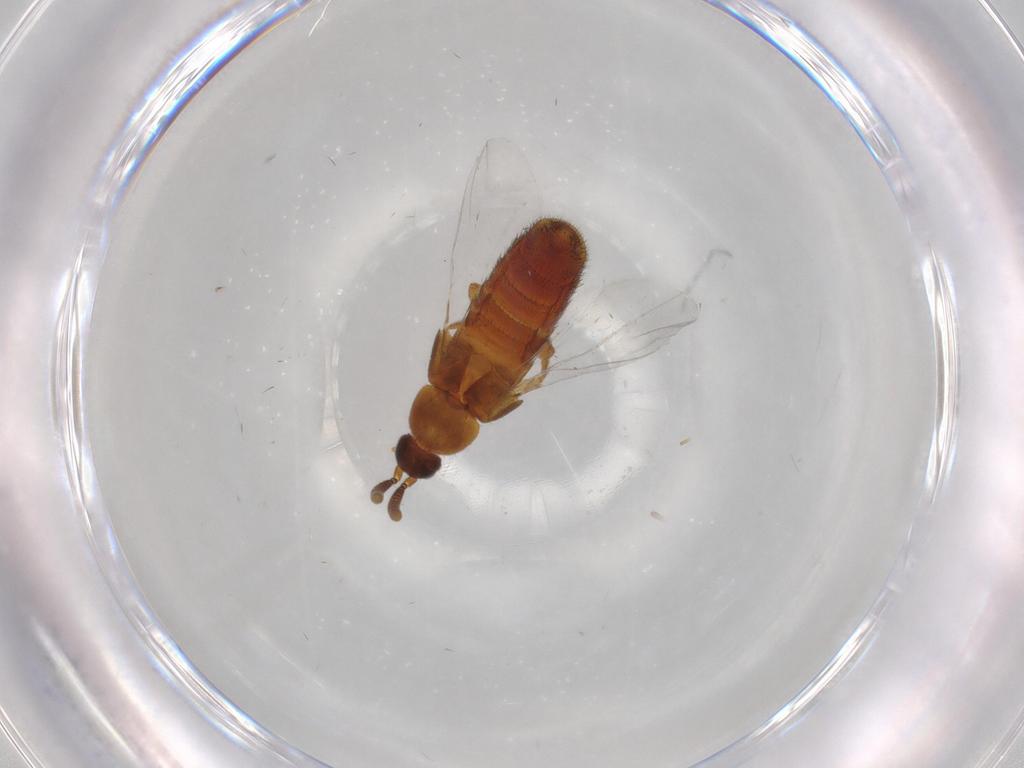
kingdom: Animalia
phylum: Arthropoda
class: Insecta
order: Coleoptera
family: Staphylinidae
